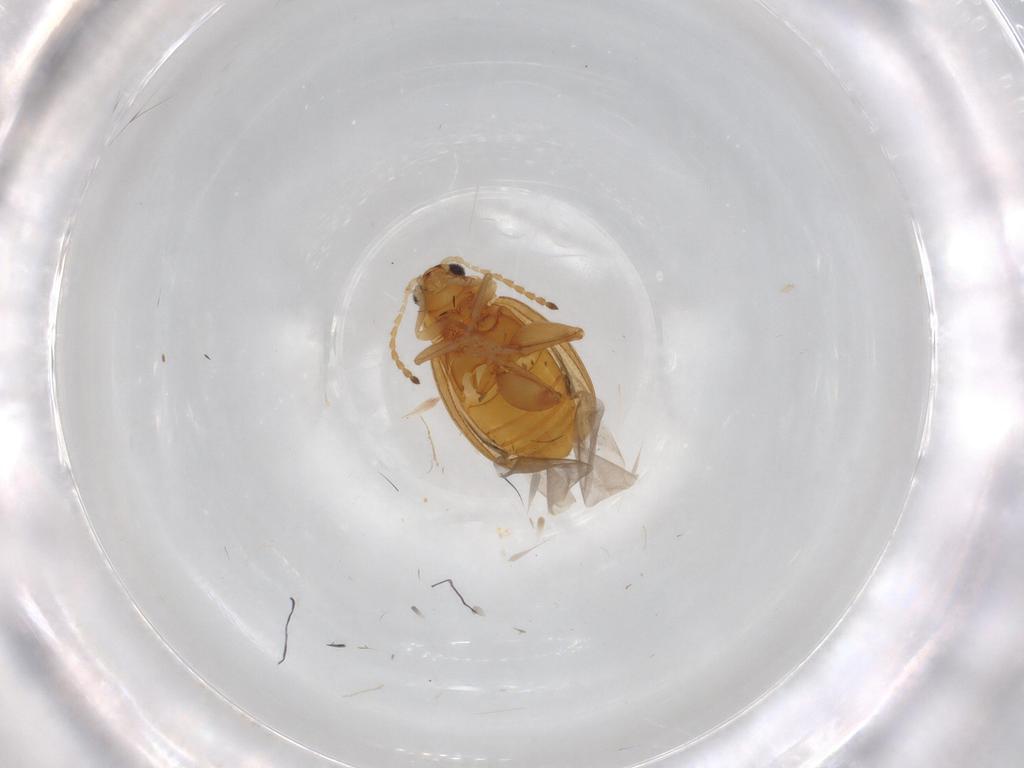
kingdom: Animalia
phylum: Arthropoda
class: Insecta
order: Coleoptera
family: Chrysomelidae
